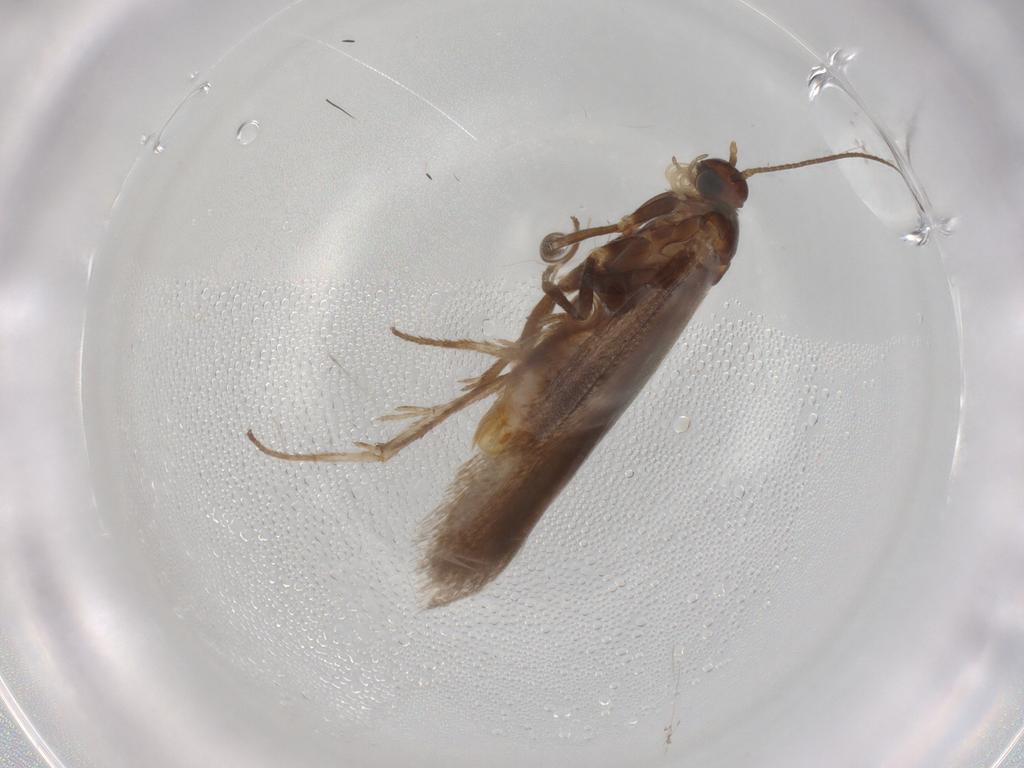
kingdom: Animalia
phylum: Arthropoda
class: Insecta
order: Lepidoptera
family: Limacodidae
